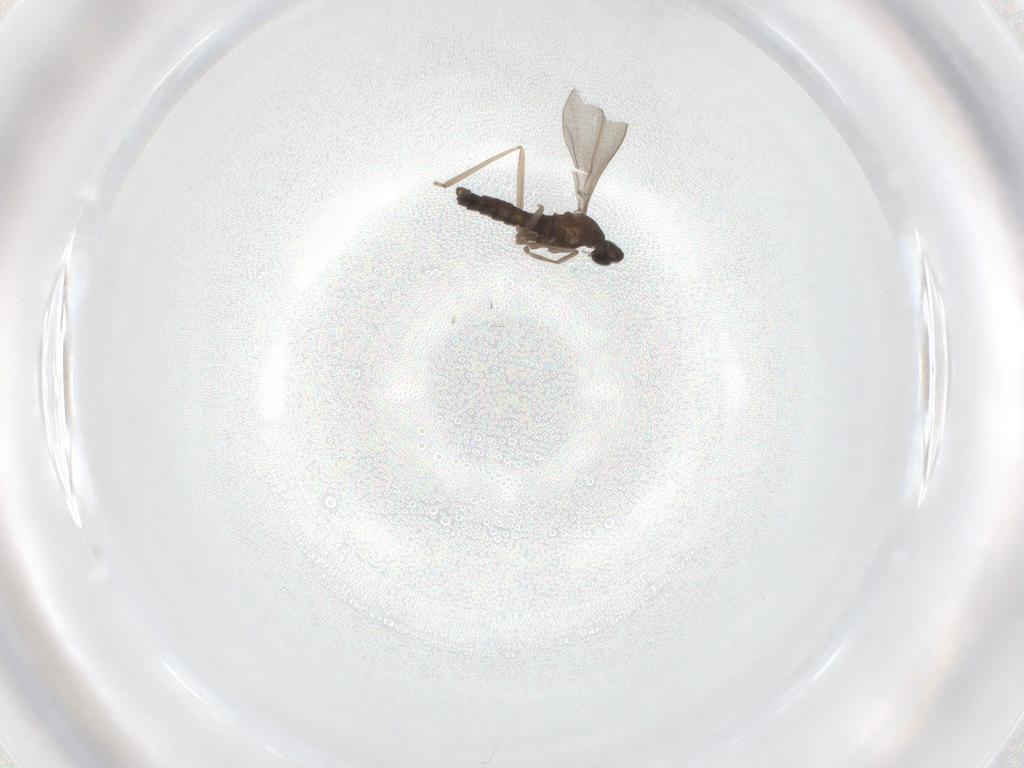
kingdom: Animalia
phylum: Arthropoda
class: Insecta
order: Diptera
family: Cecidomyiidae
